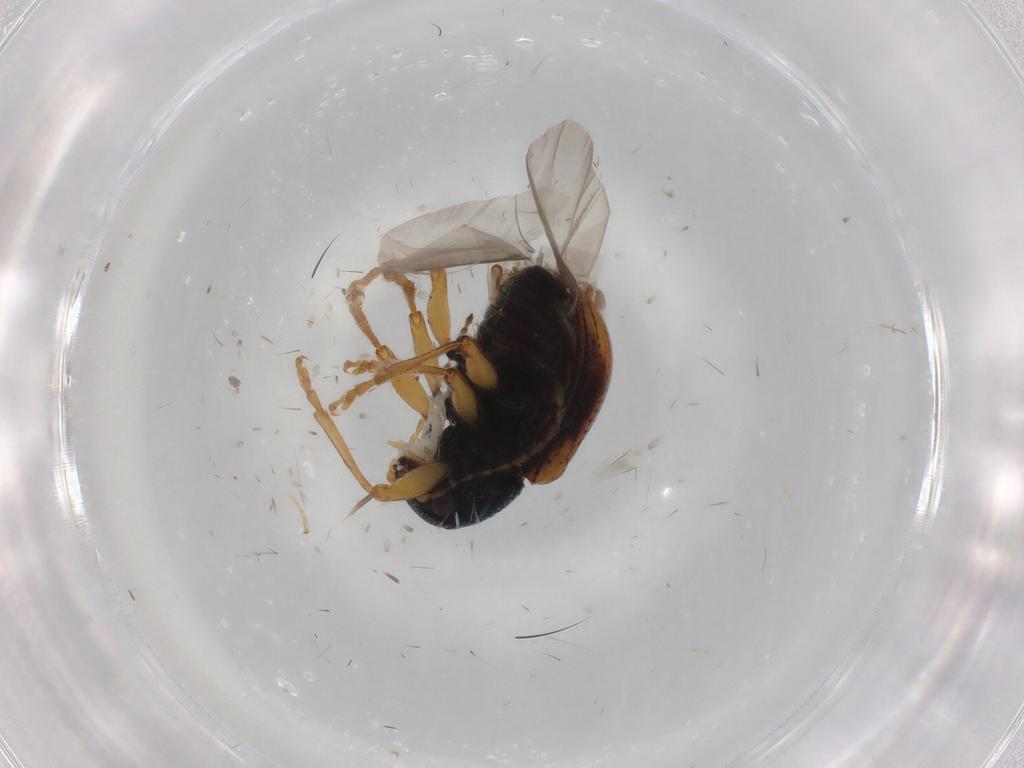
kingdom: Animalia
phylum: Arthropoda
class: Insecta
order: Coleoptera
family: Chrysomelidae
